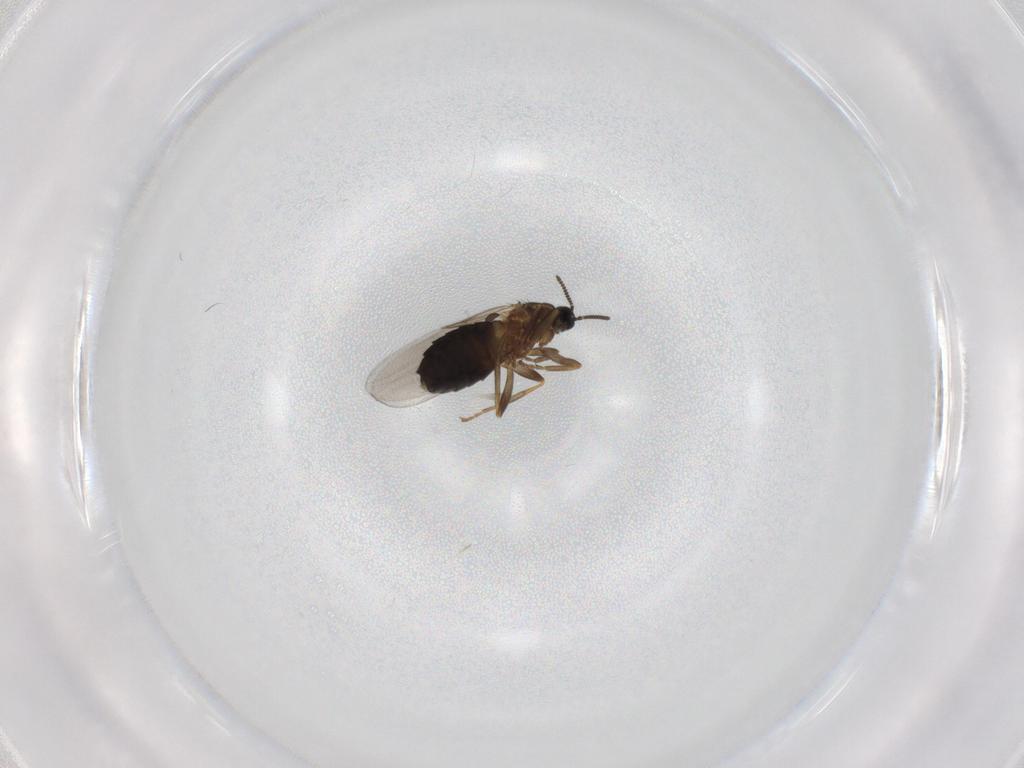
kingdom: Animalia
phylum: Arthropoda
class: Insecta
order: Diptera
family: Scatopsidae
